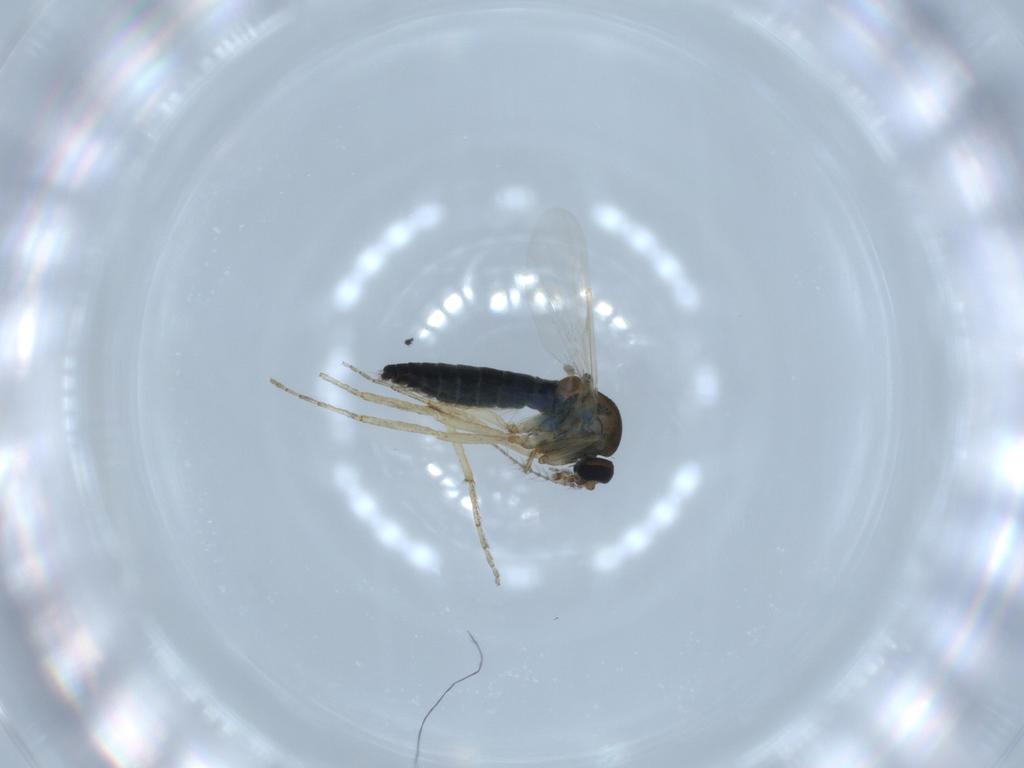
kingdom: Animalia
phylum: Arthropoda
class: Insecta
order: Diptera
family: Ceratopogonidae
